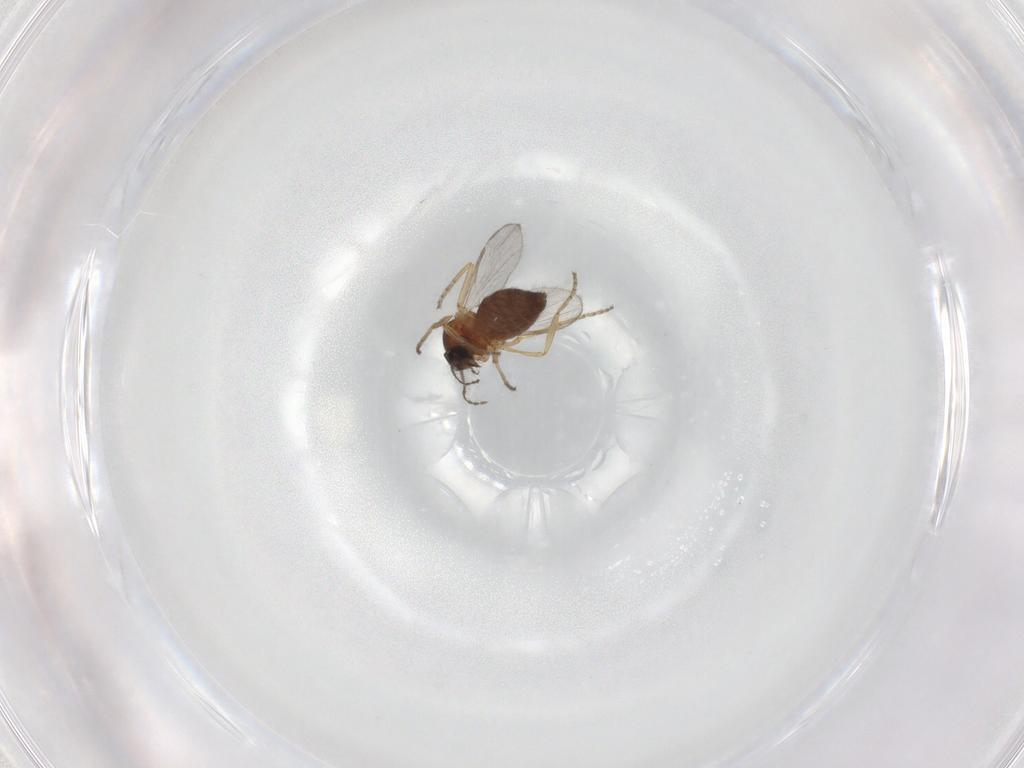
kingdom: Animalia
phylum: Arthropoda
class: Insecta
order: Diptera
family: Ceratopogonidae
